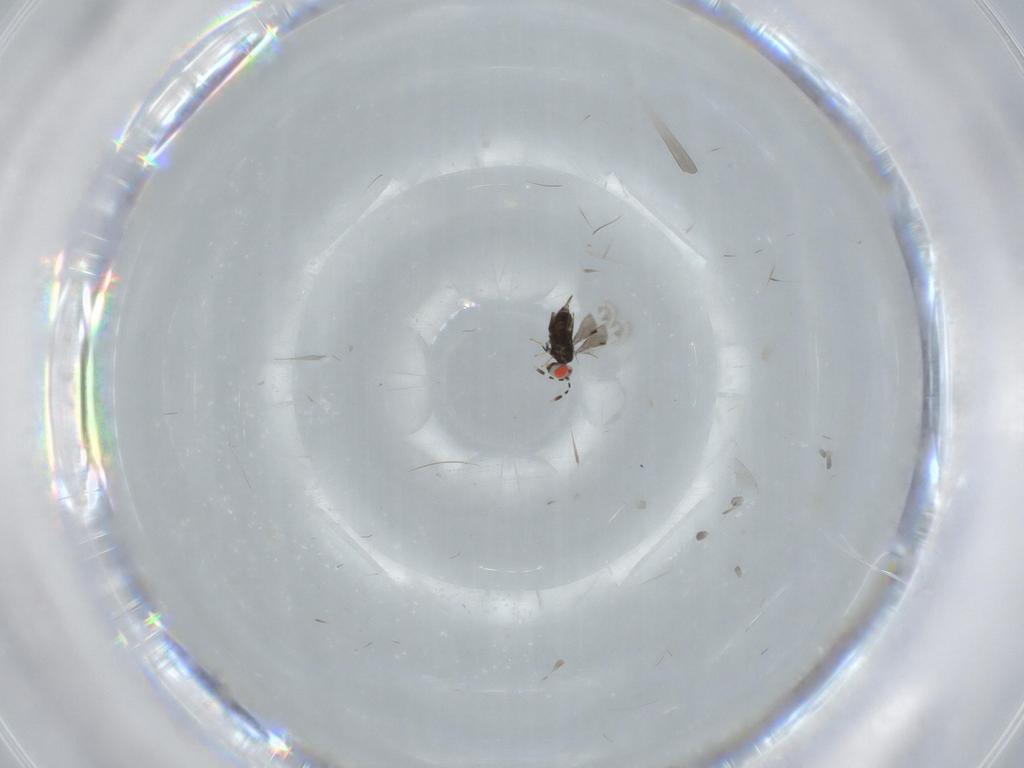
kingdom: Animalia
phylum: Arthropoda
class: Insecta
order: Hymenoptera
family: Azotidae
